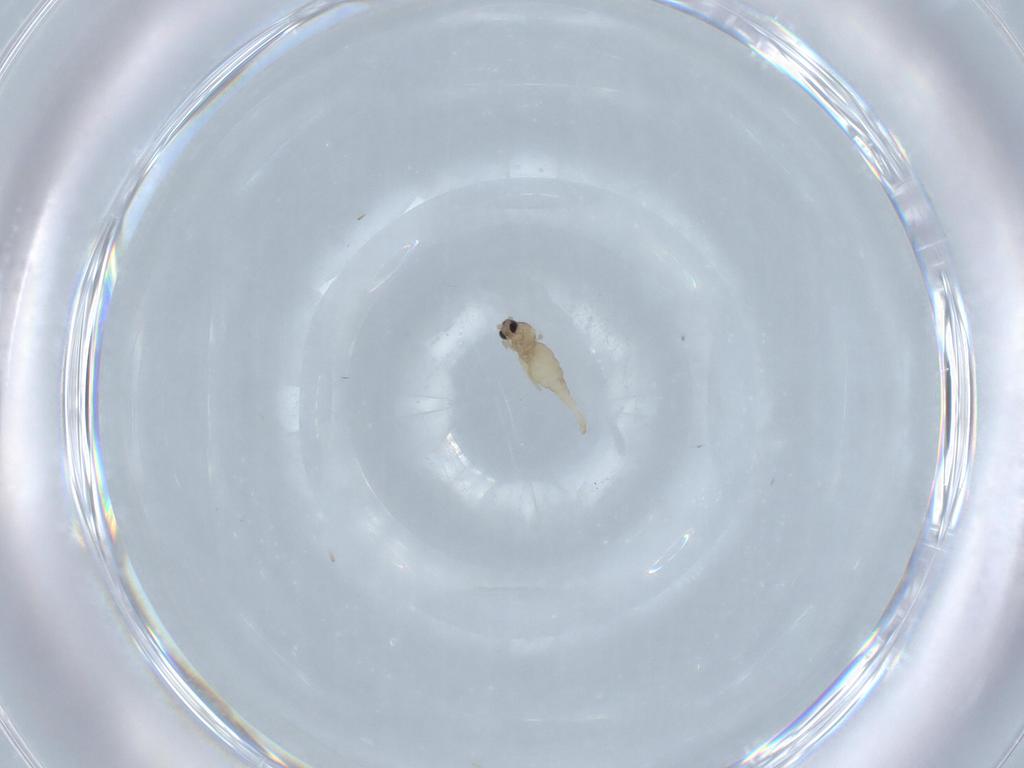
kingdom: Animalia
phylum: Arthropoda
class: Insecta
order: Diptera
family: Cecidomyiidae
